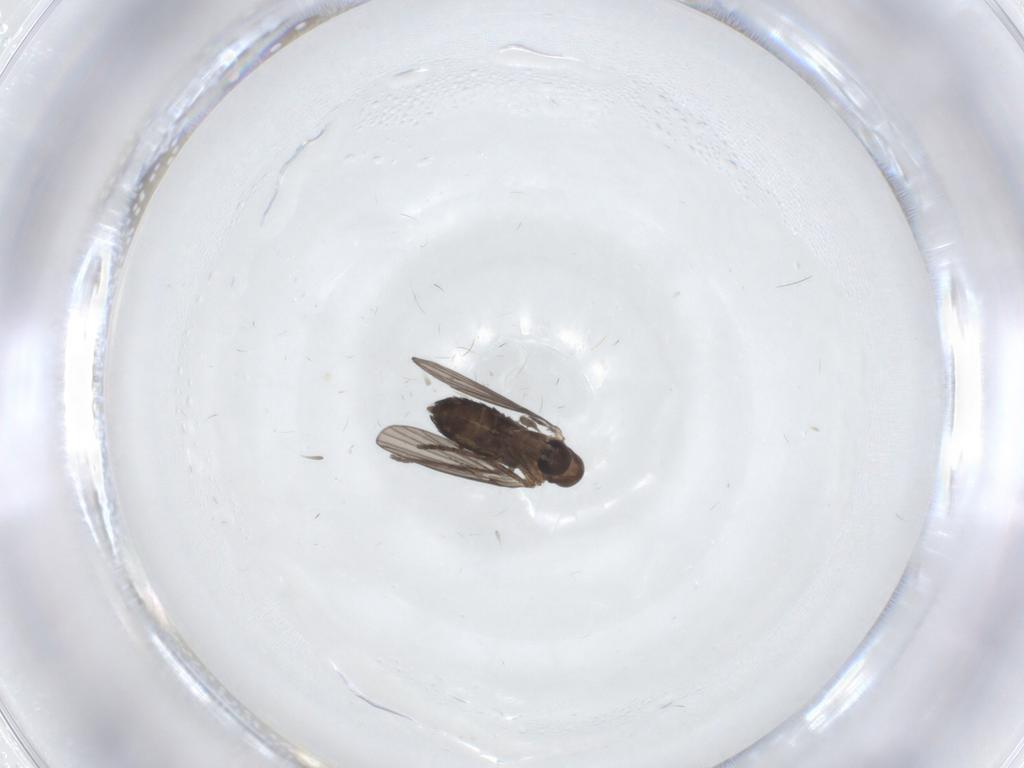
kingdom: Animalia
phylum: Arthropoda
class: Insecta
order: Diptera
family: Phoridae
